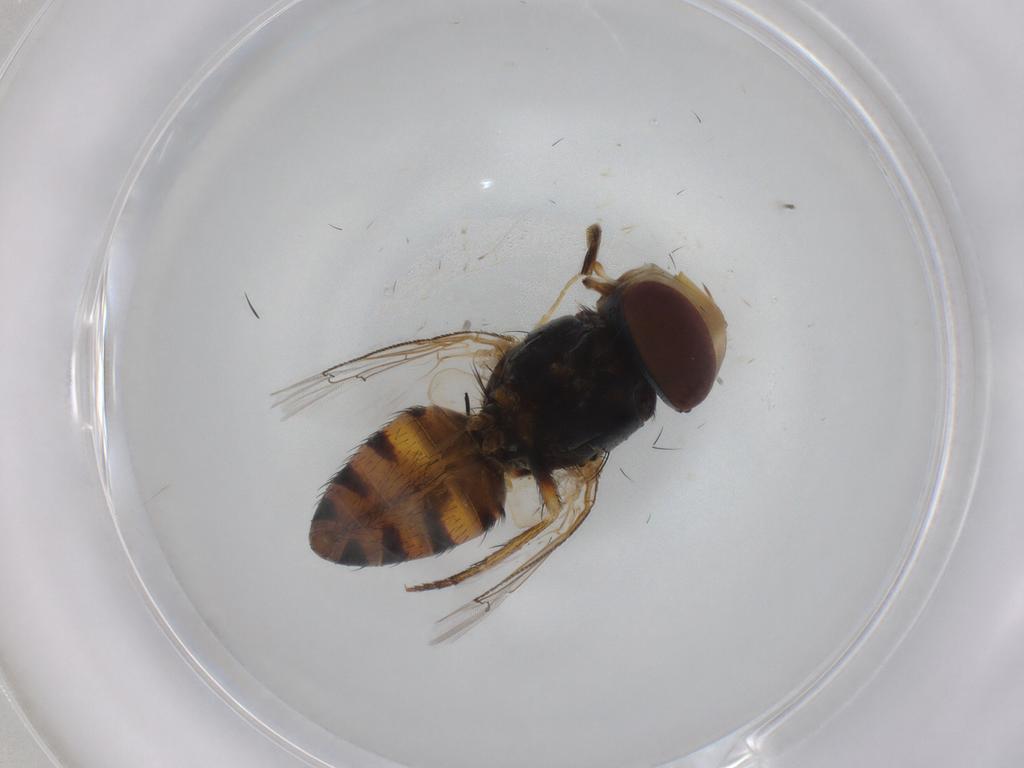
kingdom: Animalia
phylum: Arthropoda
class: Insecta
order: Diptera
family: Dolichopodidae
